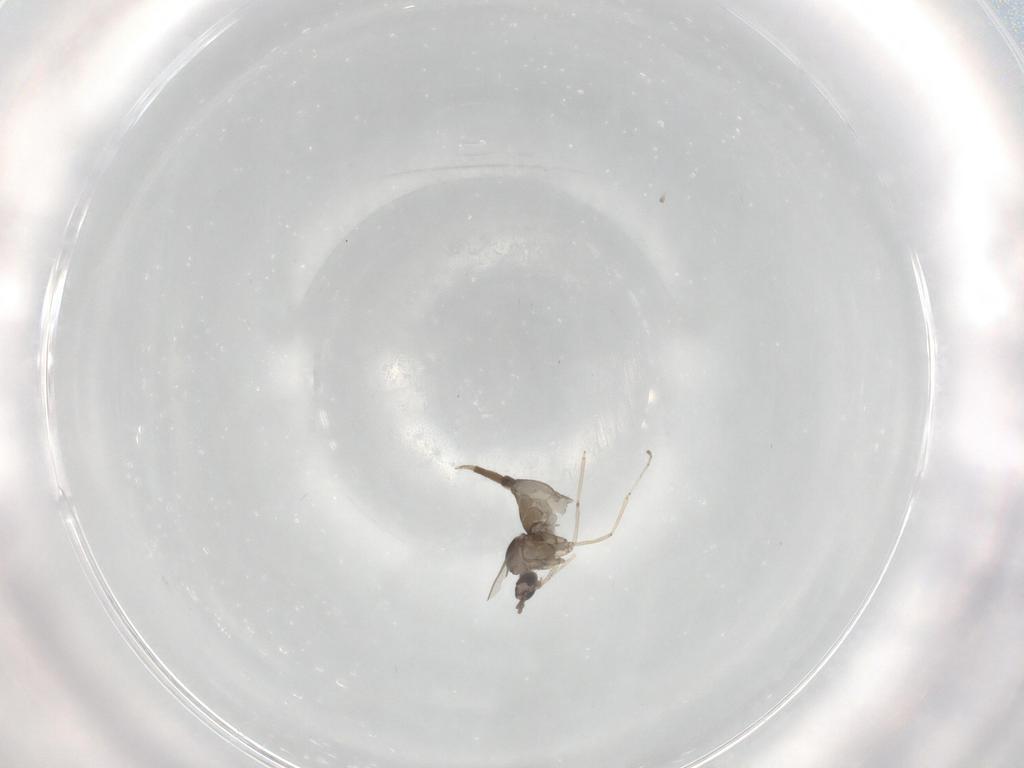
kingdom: Animalia
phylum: Arthropoda
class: Insecta
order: Diptera
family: Cecidomyiidae
